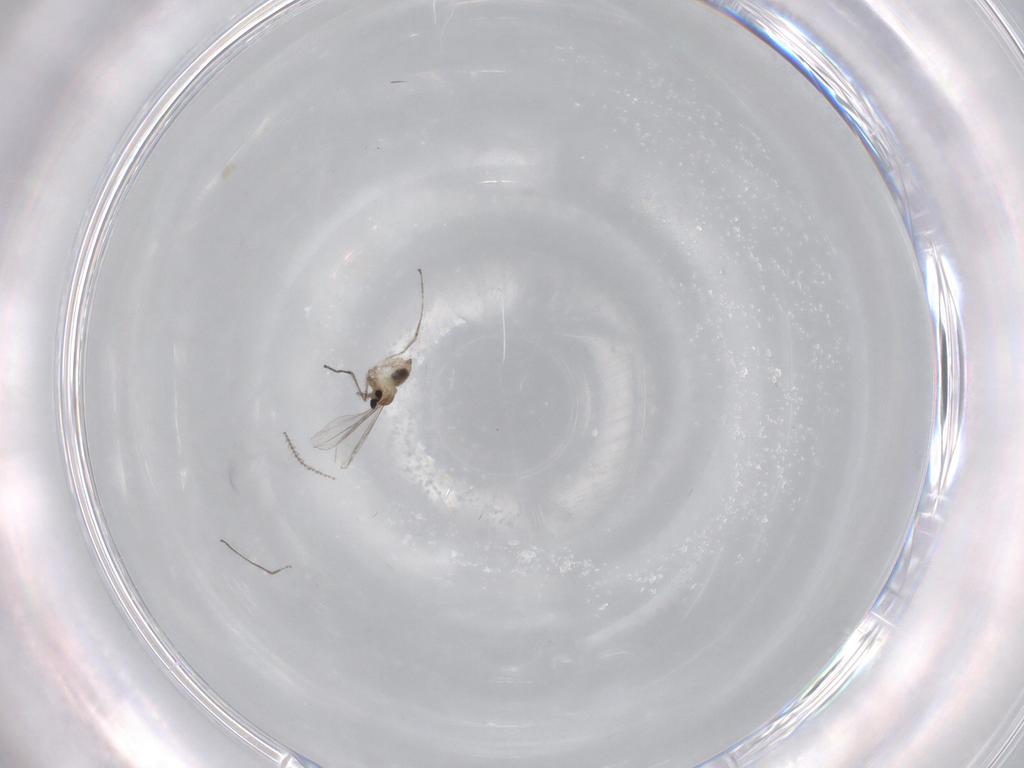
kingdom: Animalia
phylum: Arthropoda
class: Insecta
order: Diptera
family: Cecidomyiidae
